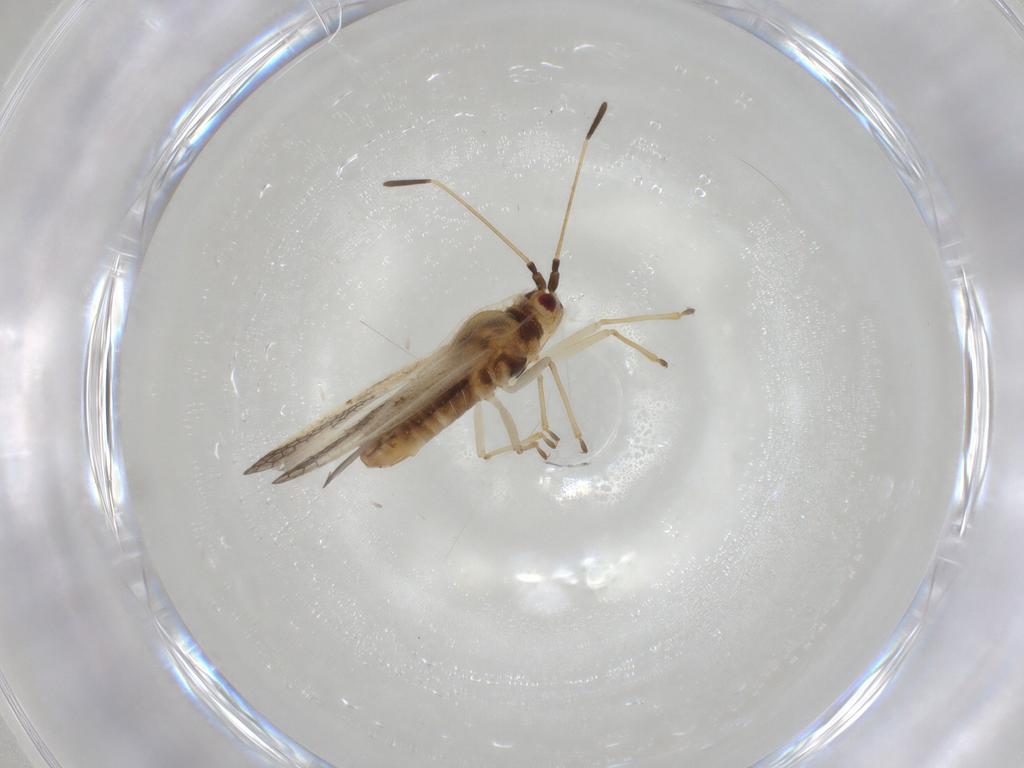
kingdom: Animalia
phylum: Arthropoda
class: Insecta
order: Hemiptera
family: Tingidae
